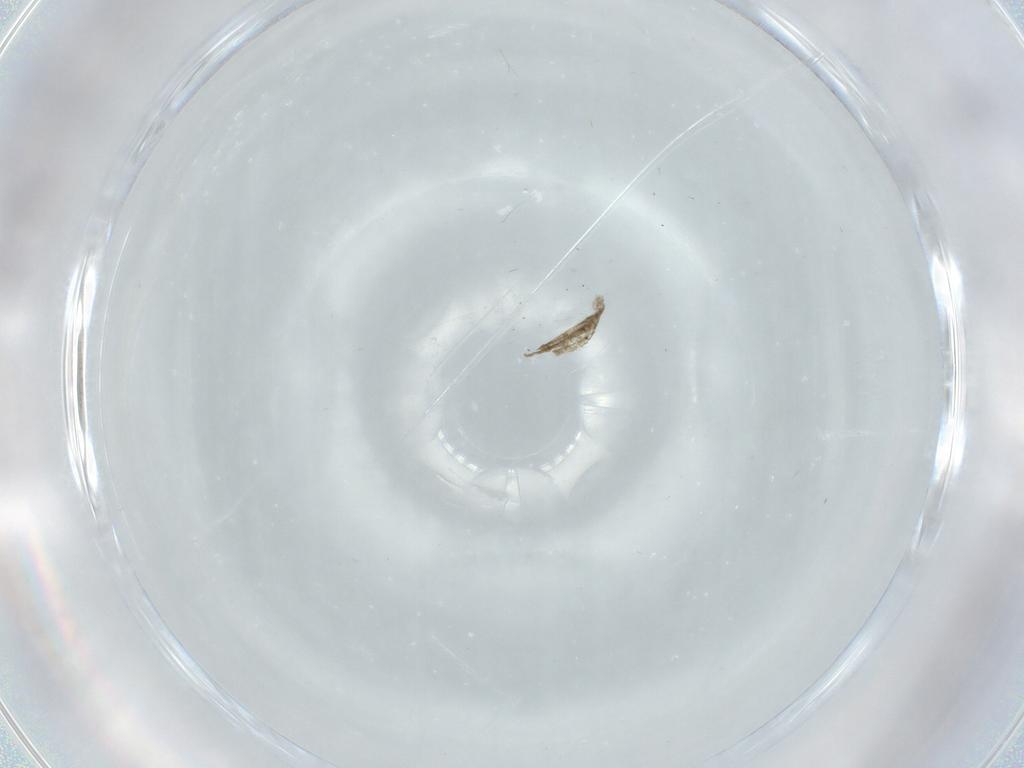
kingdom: Animalia
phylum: Arthropoda
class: Insecta
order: Diptera
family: Cecidomyiidae
